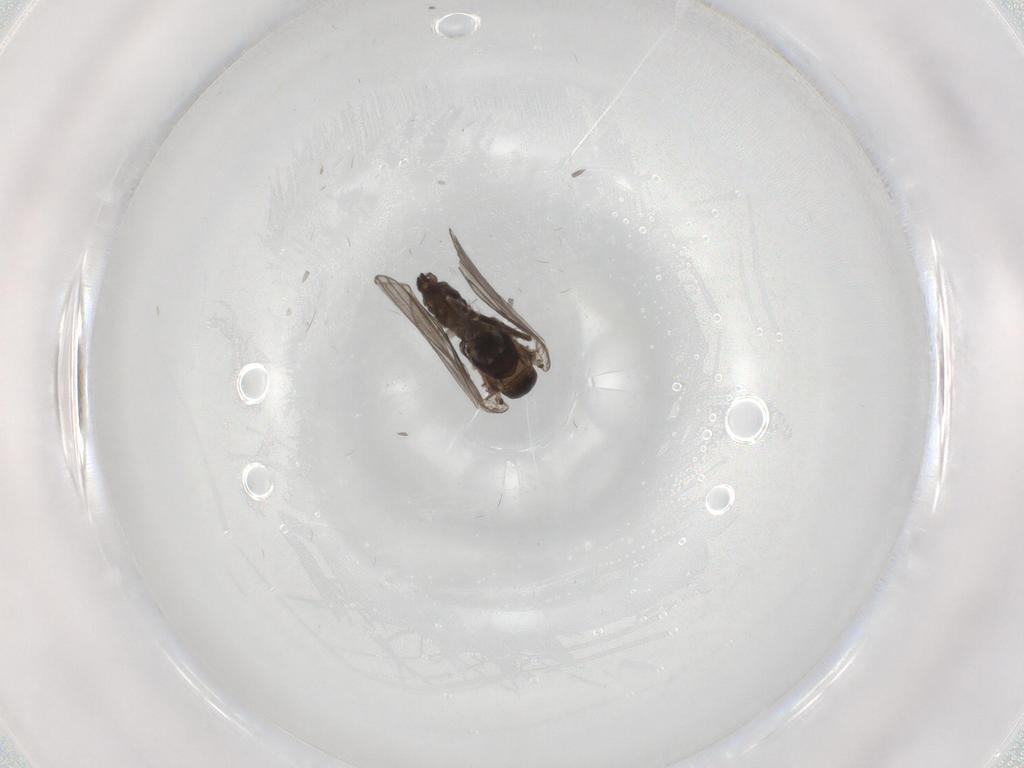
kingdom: Animalia
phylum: Arthropoda
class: Insecta
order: Diptera
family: Psychodidae
